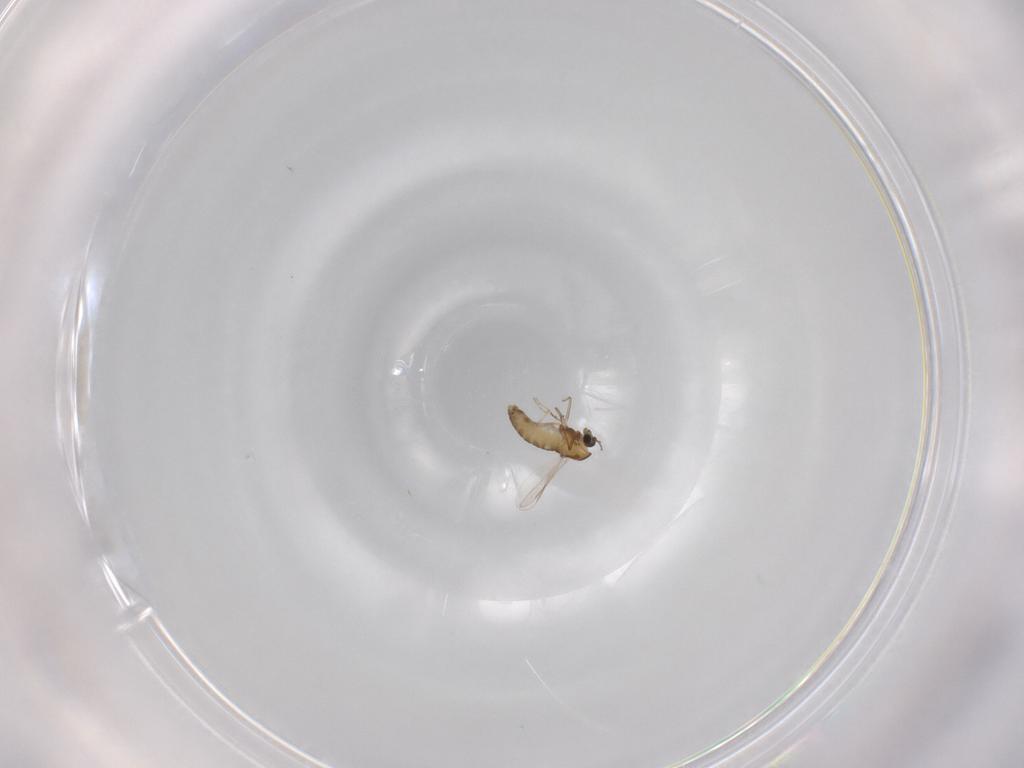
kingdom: Animalia
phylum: Arthropoda
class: Insecta
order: Diptera
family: Chironomidae
